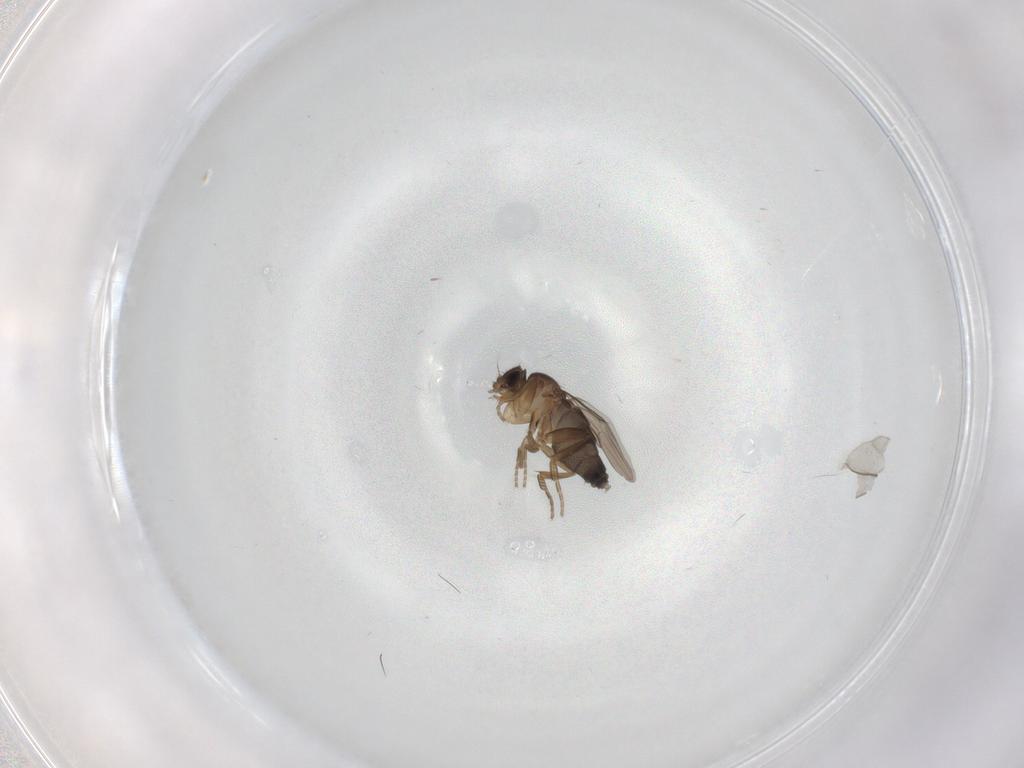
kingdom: Animalia
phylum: Arthropoda
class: Insecta
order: Diptera
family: Phoridae
